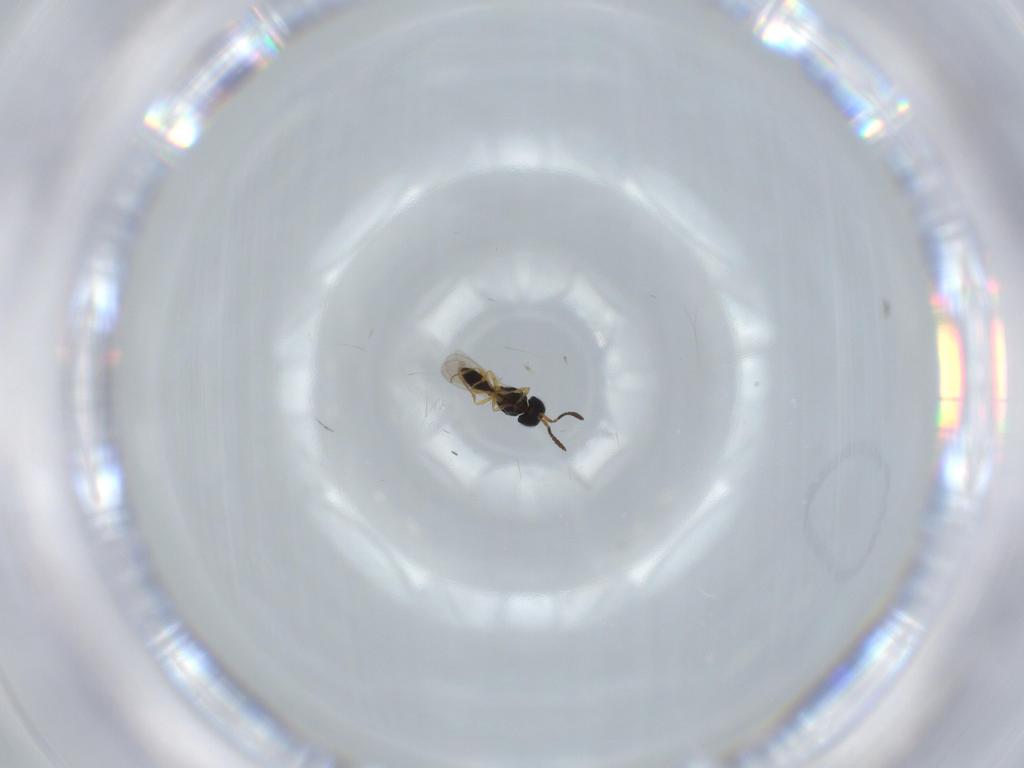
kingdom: Animalia
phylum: Arthropoda
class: Insecta
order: Hymenoptera
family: Scelionidae
